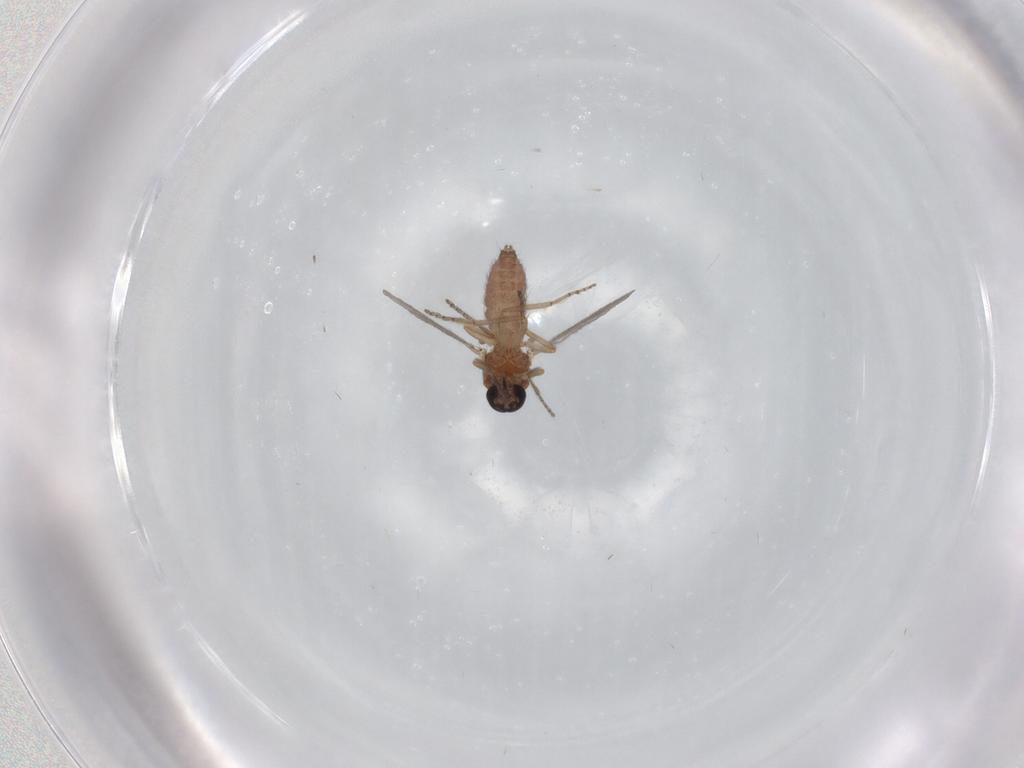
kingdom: Animalia
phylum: Arthropoda
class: Insecta
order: Diptera
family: Ceratopogonidae
